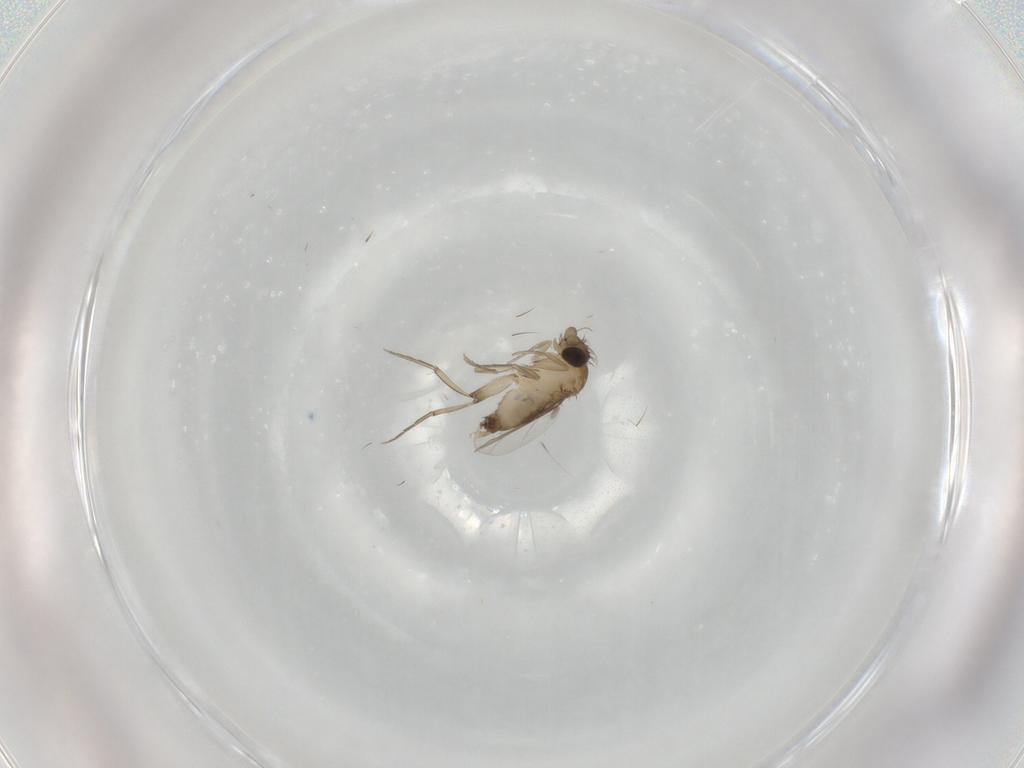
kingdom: Animalia
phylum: Arthropoda
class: Insecta
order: Diptera
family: Phoridae
